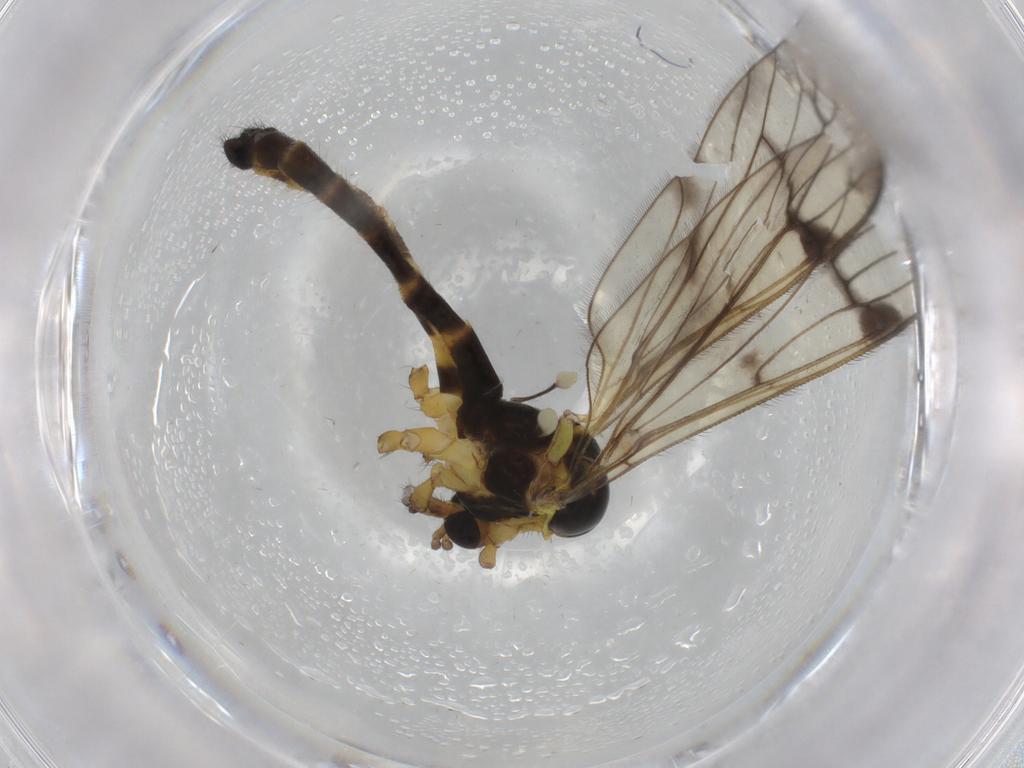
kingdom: Animalia
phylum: Arthropoda
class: Insecta
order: Diptera
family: Limoniidae
